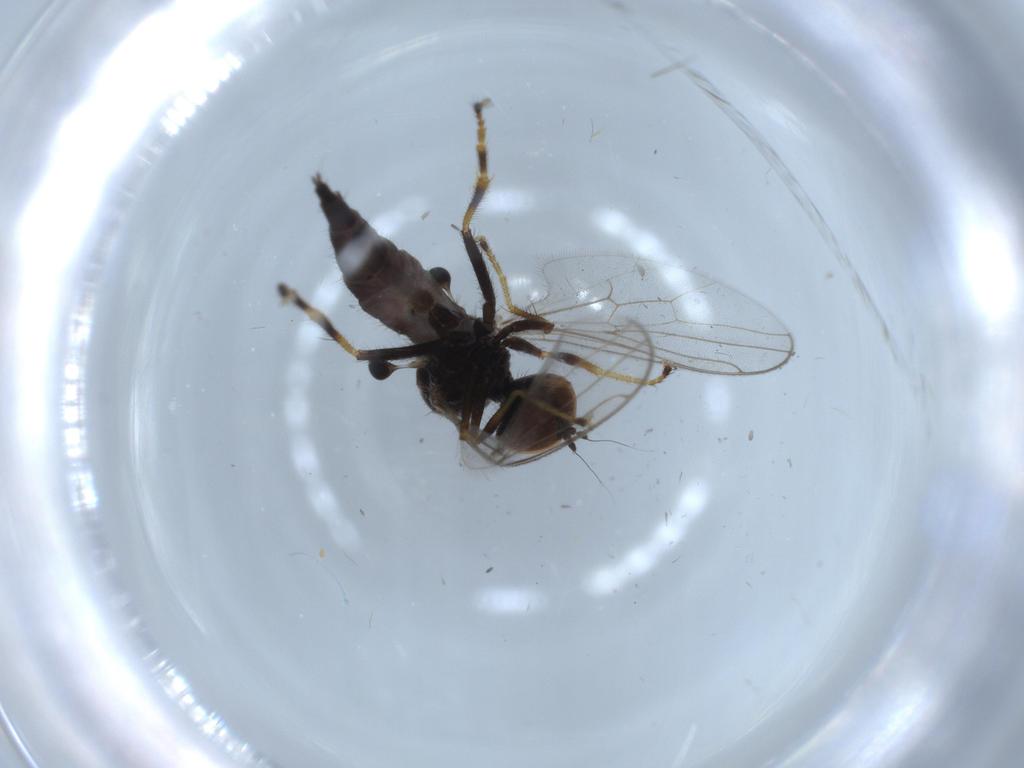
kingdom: Animalia
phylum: Arthropoda
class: Insecta
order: Diptera
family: Hybotidae
